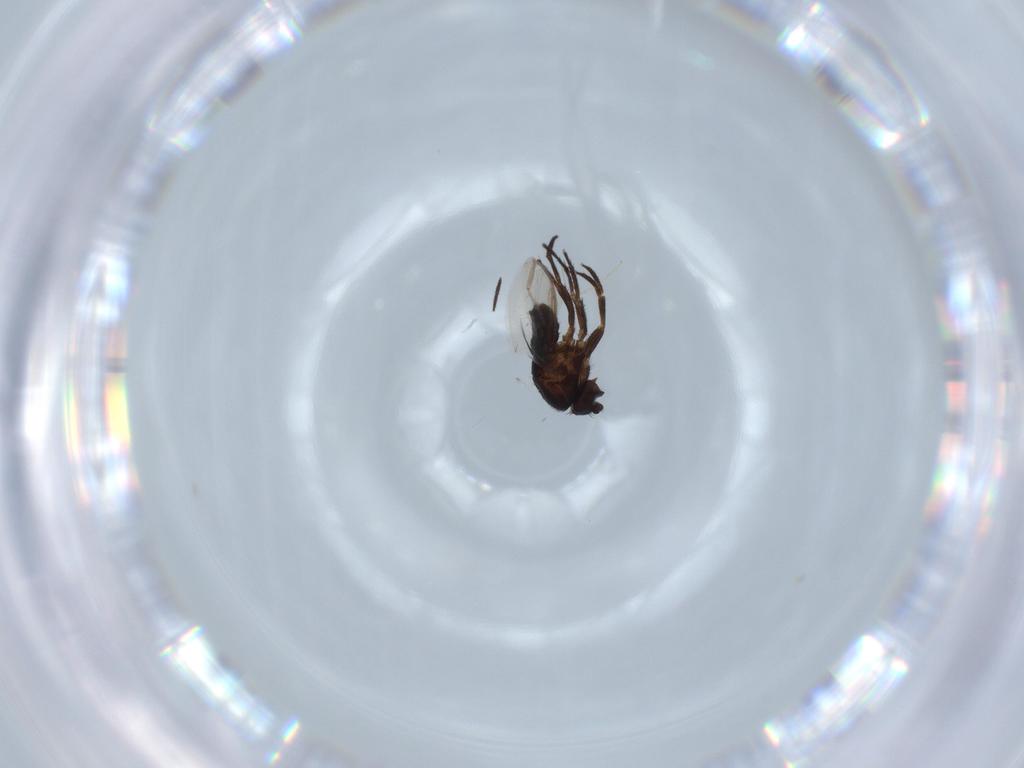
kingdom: Animalia
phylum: Arthropoda
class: Insecta
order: Diptera
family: Sphaeroceridae
